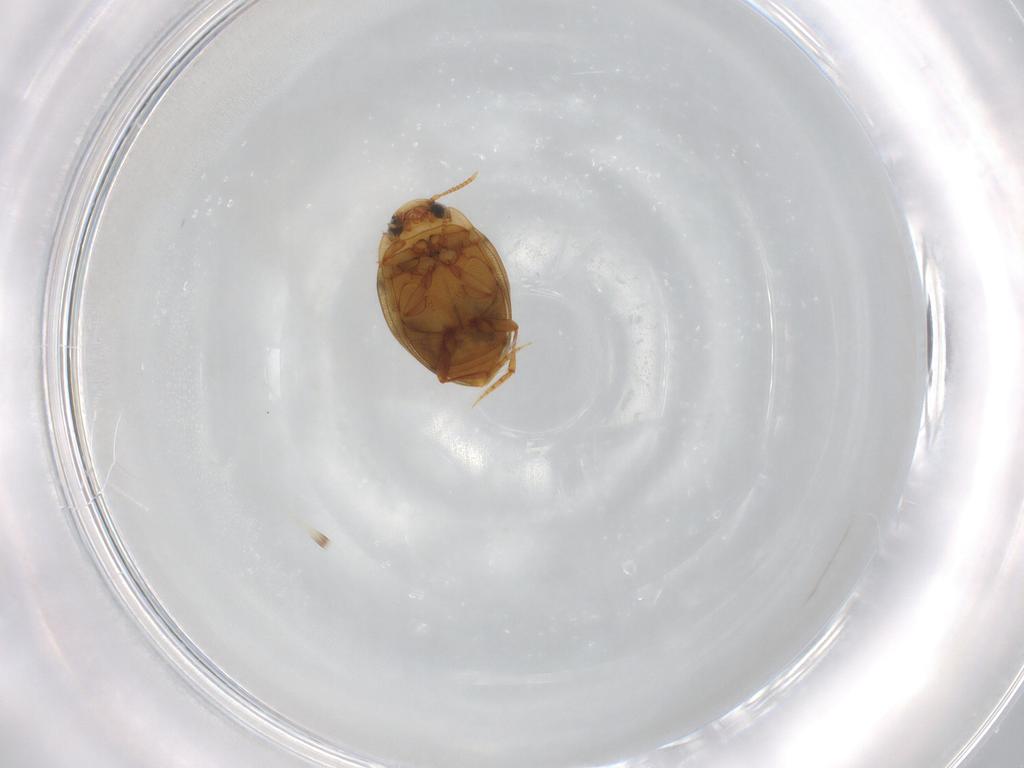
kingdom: Animalia
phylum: Arthropoda
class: Insecta
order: Coleoptera
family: Dytiscidae
